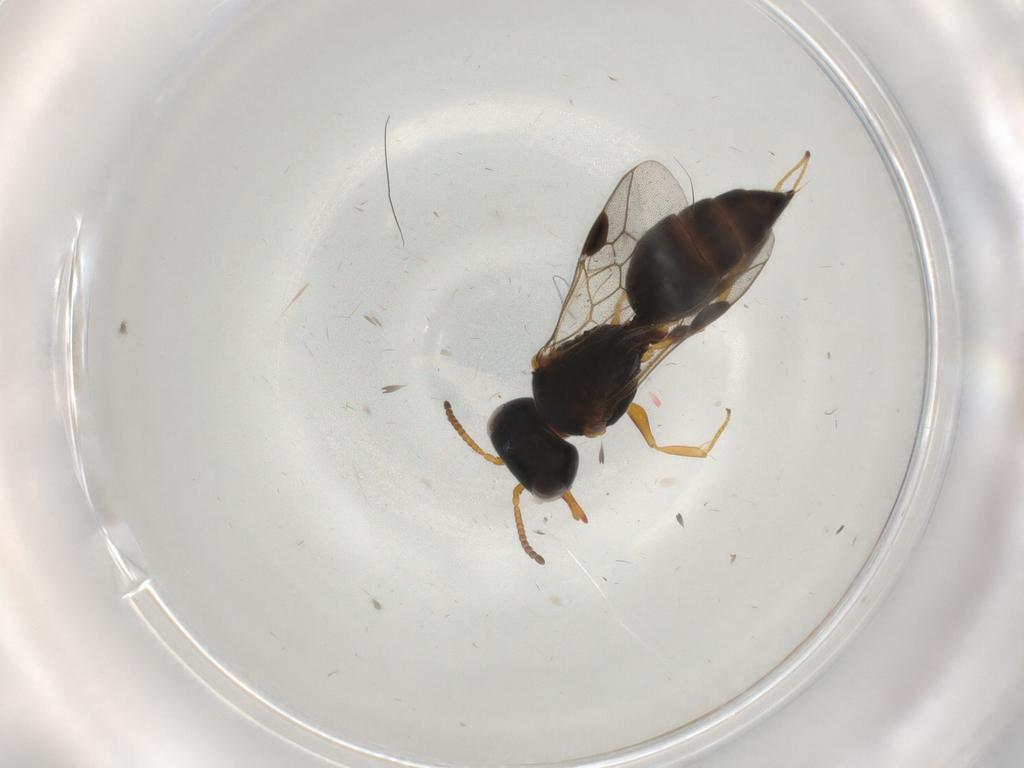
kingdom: Animalia
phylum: Arthropoda
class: Insecta
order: Hymenoptera
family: Pemphredonidae
